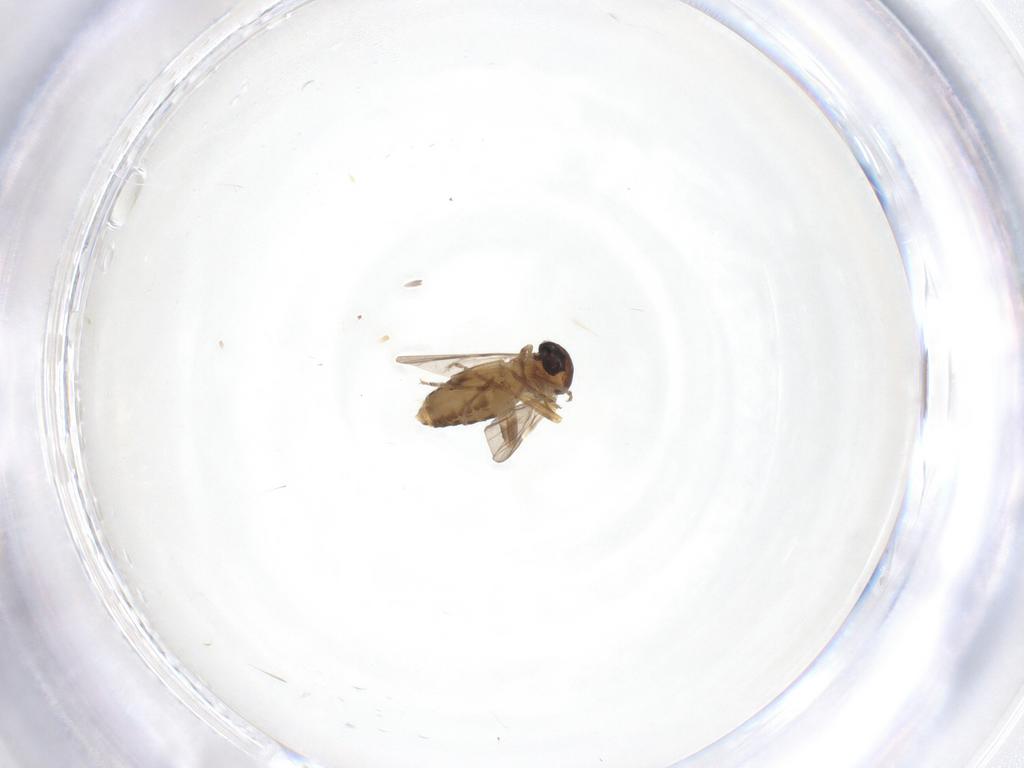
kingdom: Animalia
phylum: Arthropoda
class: Insecta
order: Diptera
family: Ceratopogonidae
